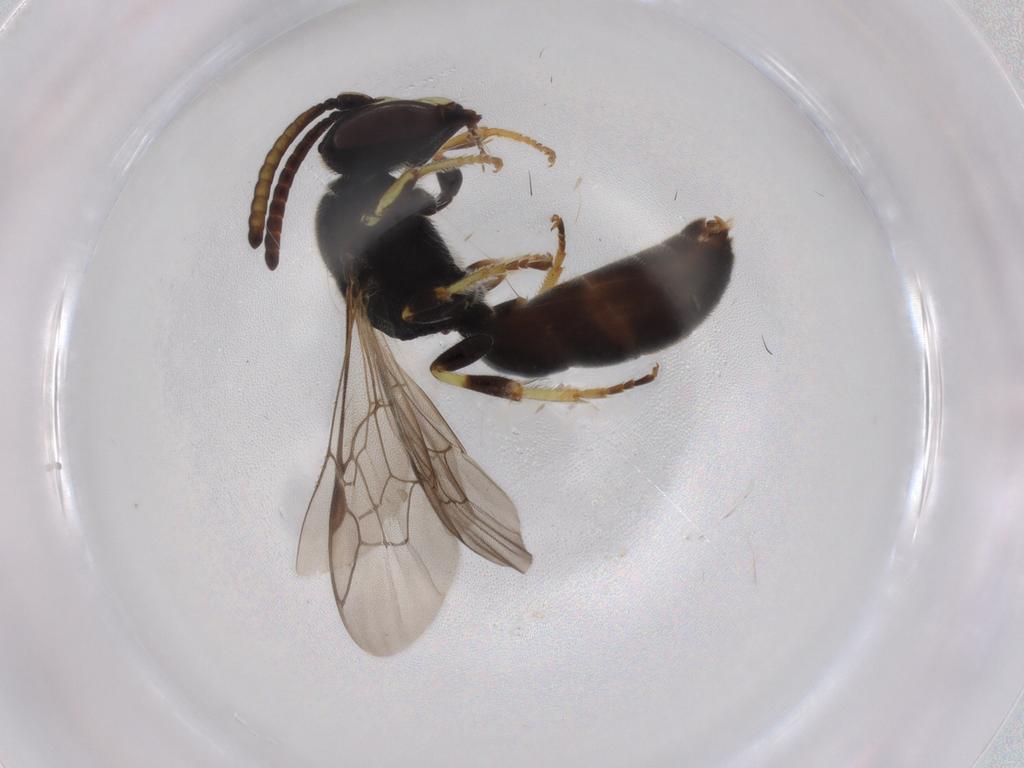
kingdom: Animalia
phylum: Arthropoda
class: Insecta
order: Hymenoptera
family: Colletidae
